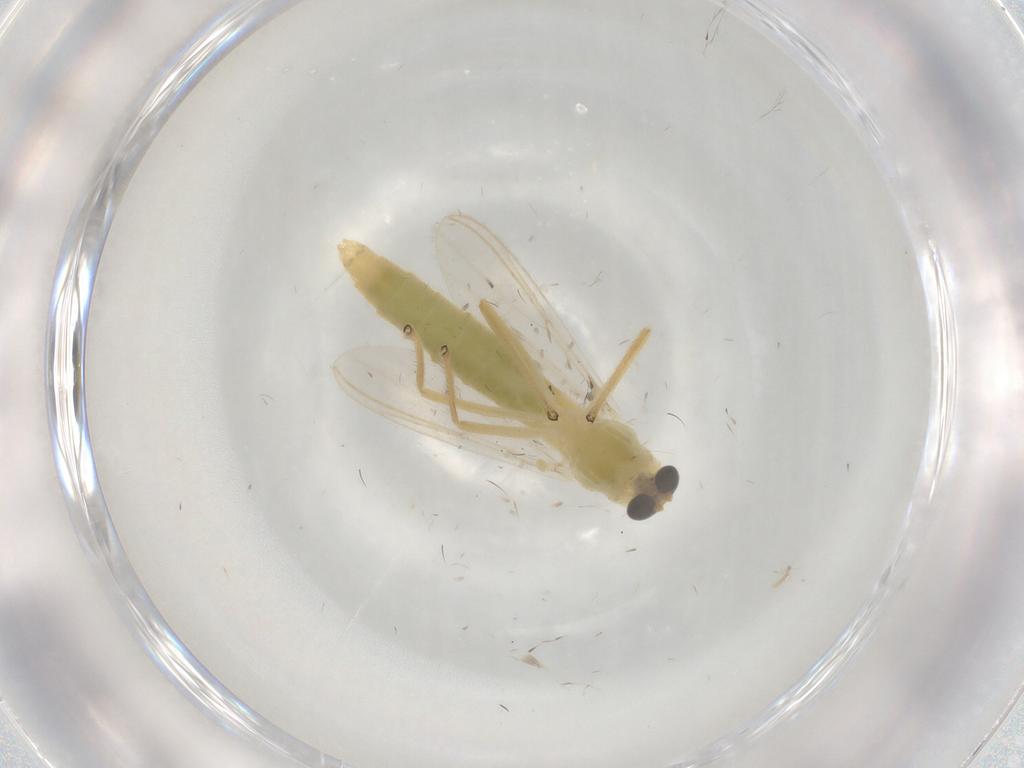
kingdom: Animalia
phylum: Arthropoda
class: Insecta
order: Diptera
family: Chironomidae
